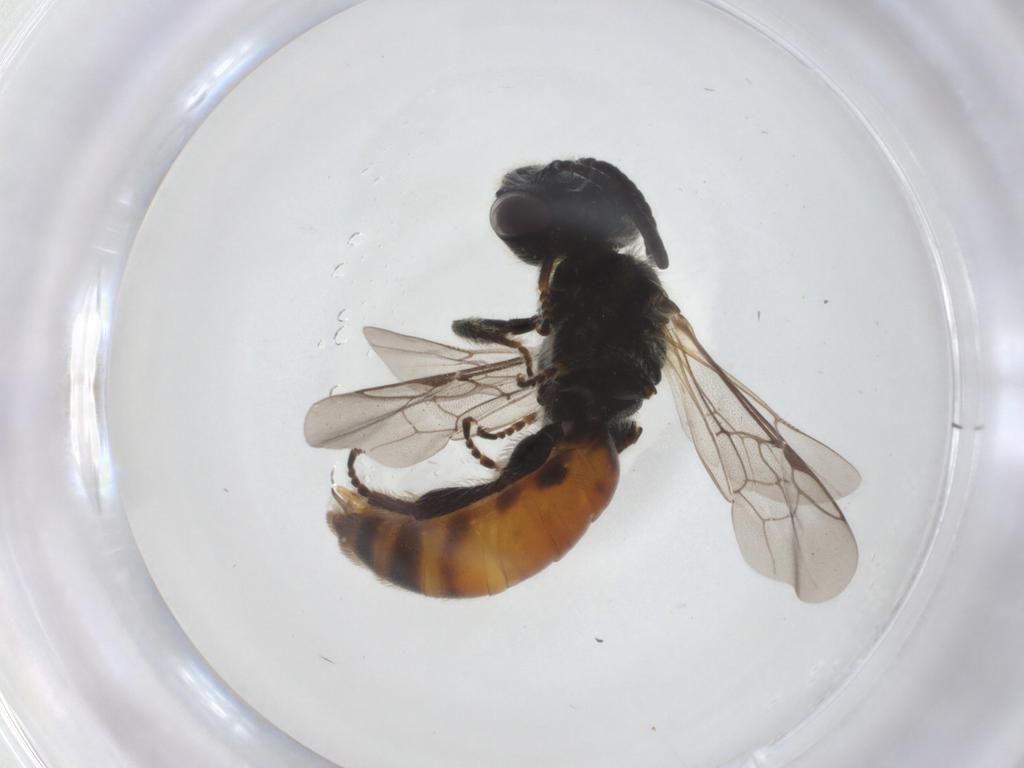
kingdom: Animalia
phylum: Arthropoda
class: Insecta
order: Hymenoptera
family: Halictidae
